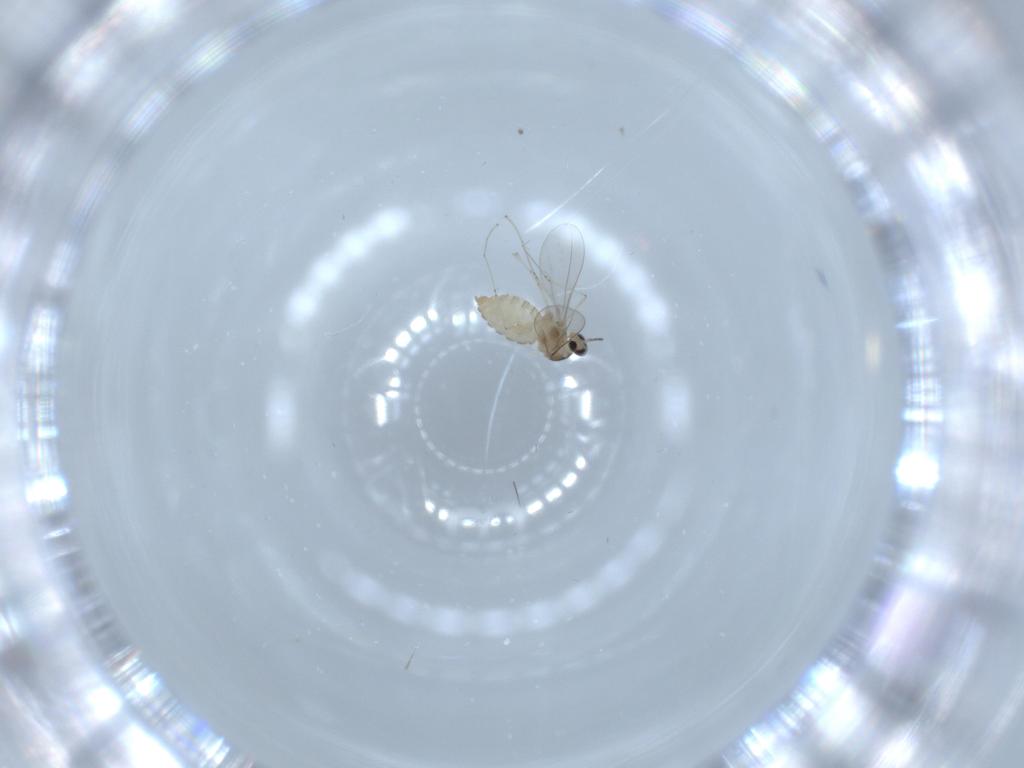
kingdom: Animalia
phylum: Arthropoda
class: Insecta
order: Diptera
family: Cecidomyiidae
